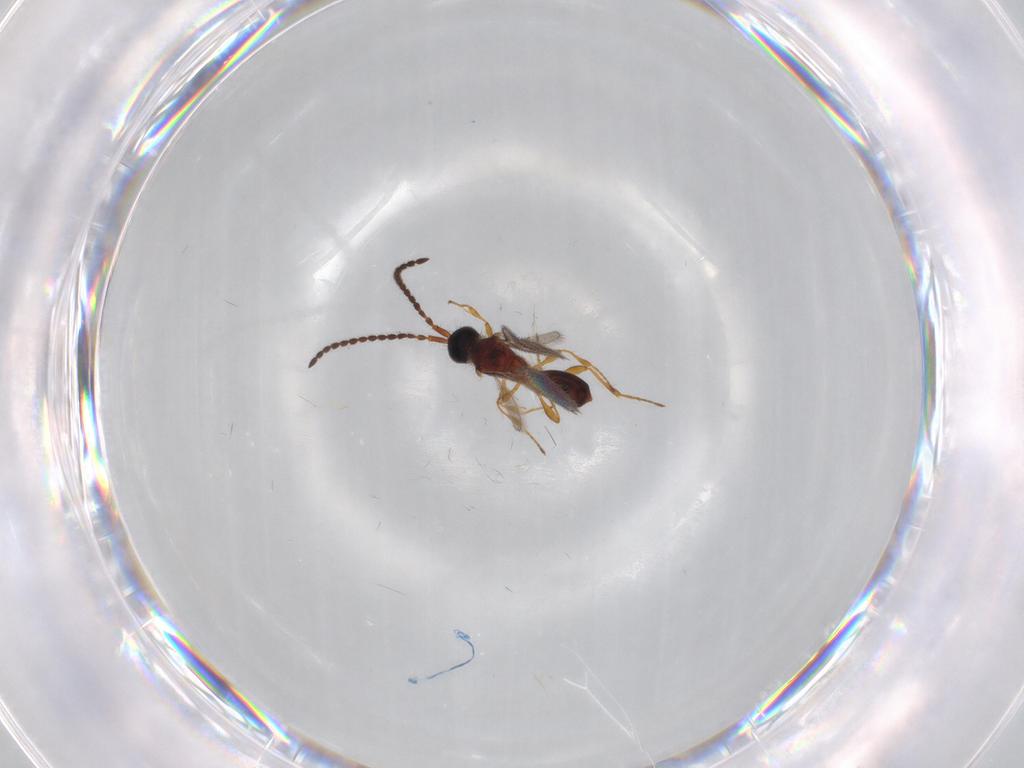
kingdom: Animalia
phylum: Arthropoda
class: Insecta
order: Hymenoptera
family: Diapriidae
